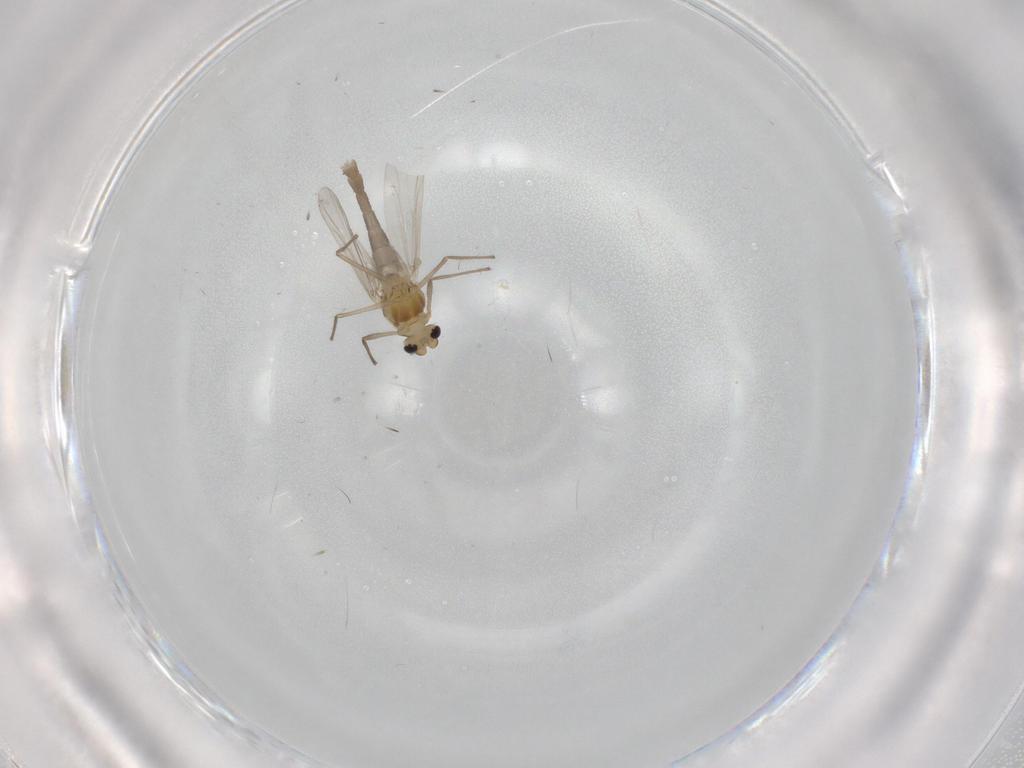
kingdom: Animalia
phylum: Arthropoda
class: Insecta
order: Diptera
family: Chironomidae
